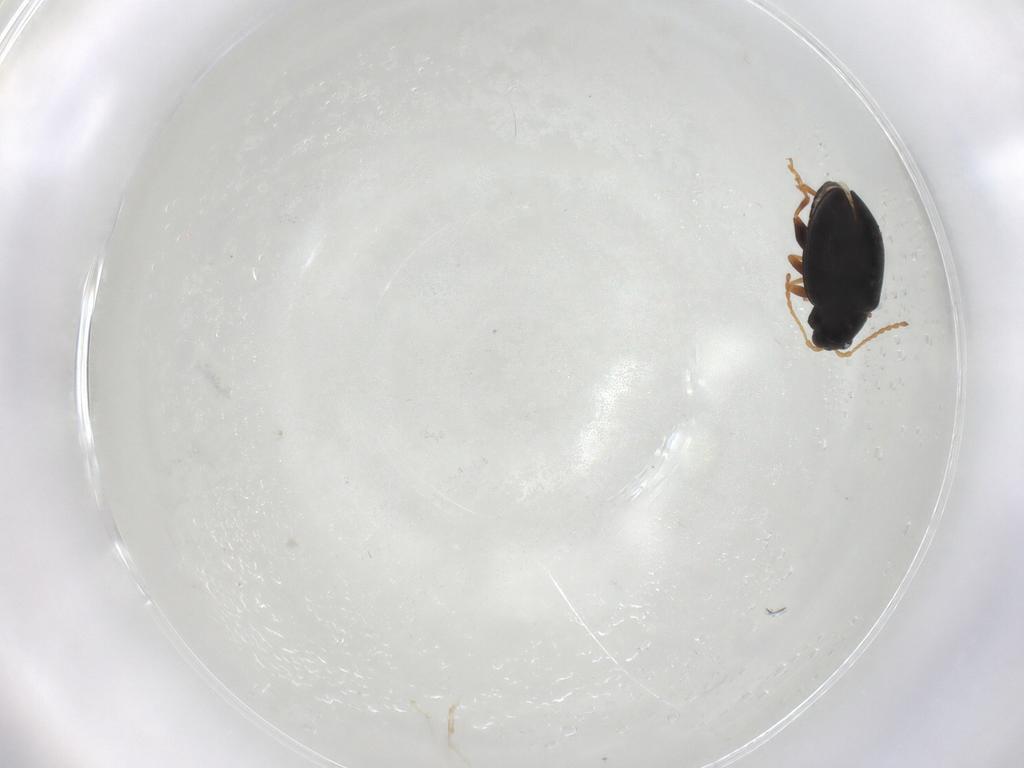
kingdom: Animalia
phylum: Arthropoda
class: Insecta
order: Coleoptera
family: Chrysomelidae
